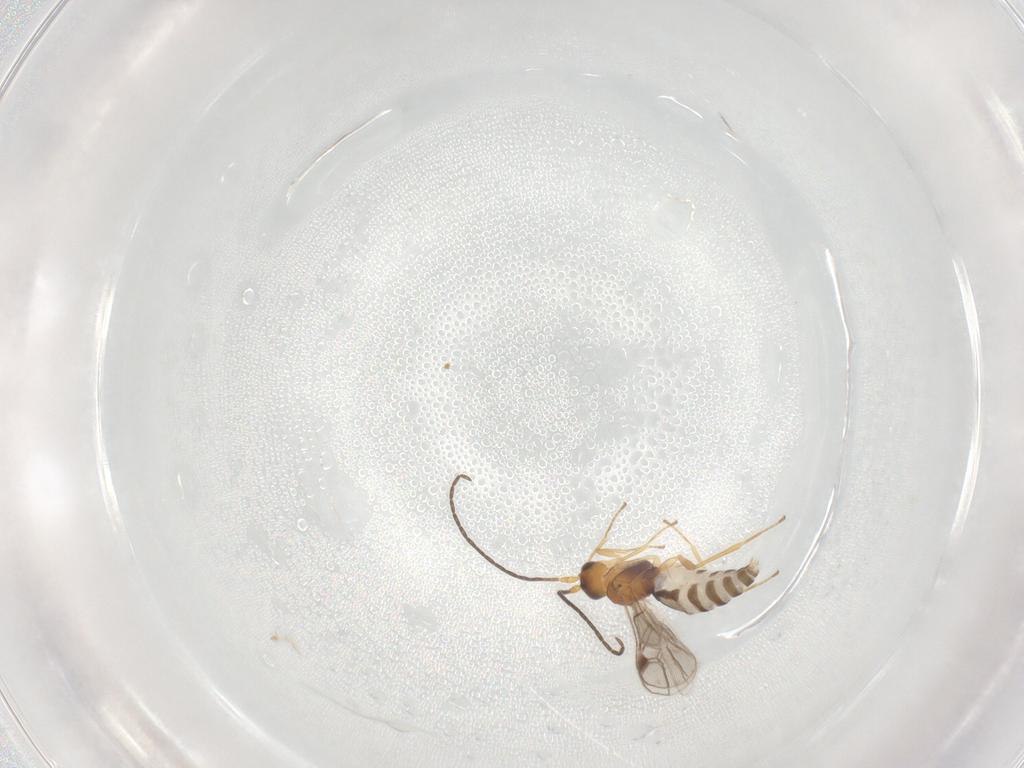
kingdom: Animalia
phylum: Arthropoda
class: Insecta
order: Hymenoptera
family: Braconidae
